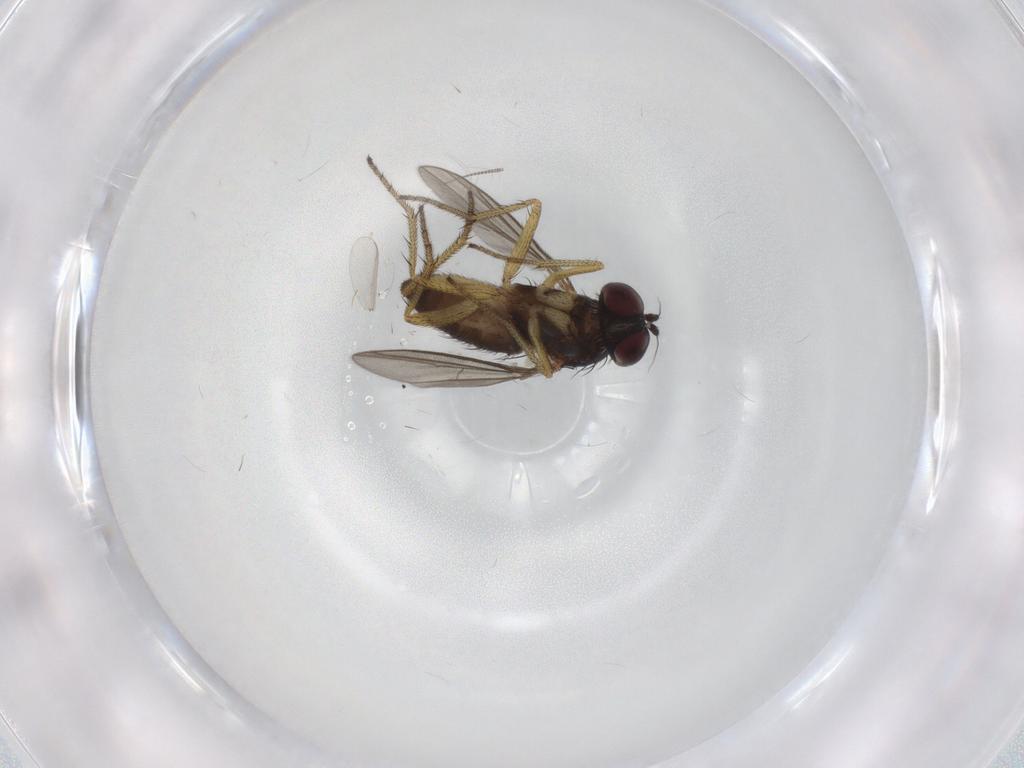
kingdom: Animalia
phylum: Arthropoda
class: Insecta
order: Diptera
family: Dolichopodidae
